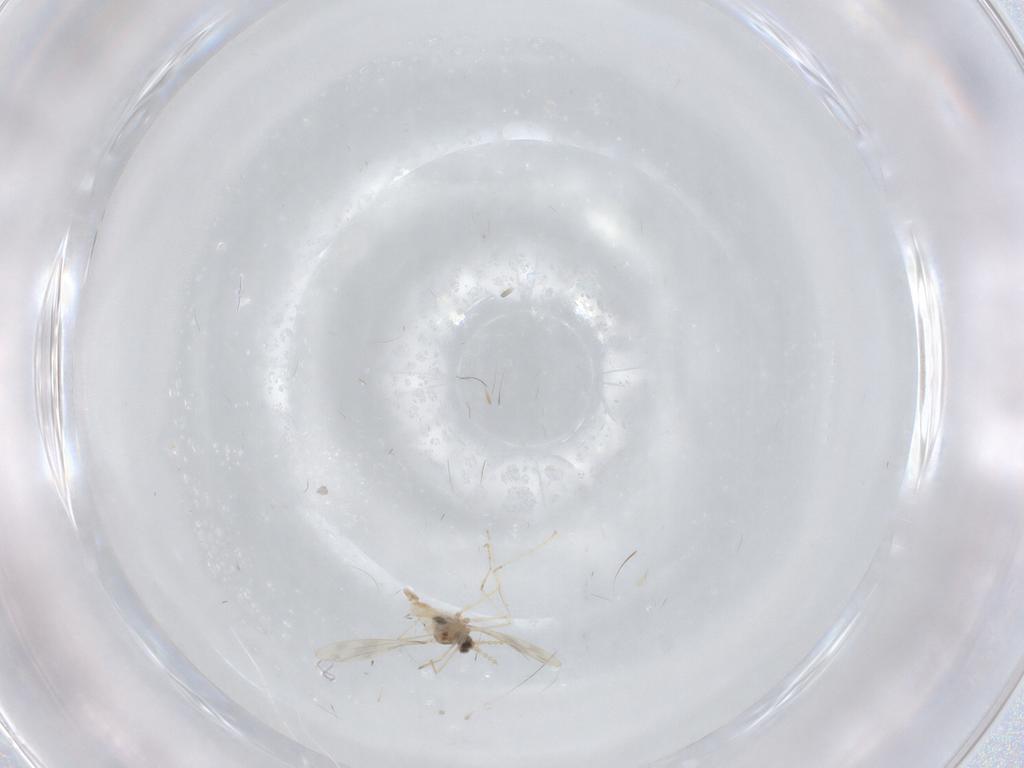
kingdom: Animalia
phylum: Arthropoda
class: Insecta
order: Coleoptera
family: Staphylinidae
